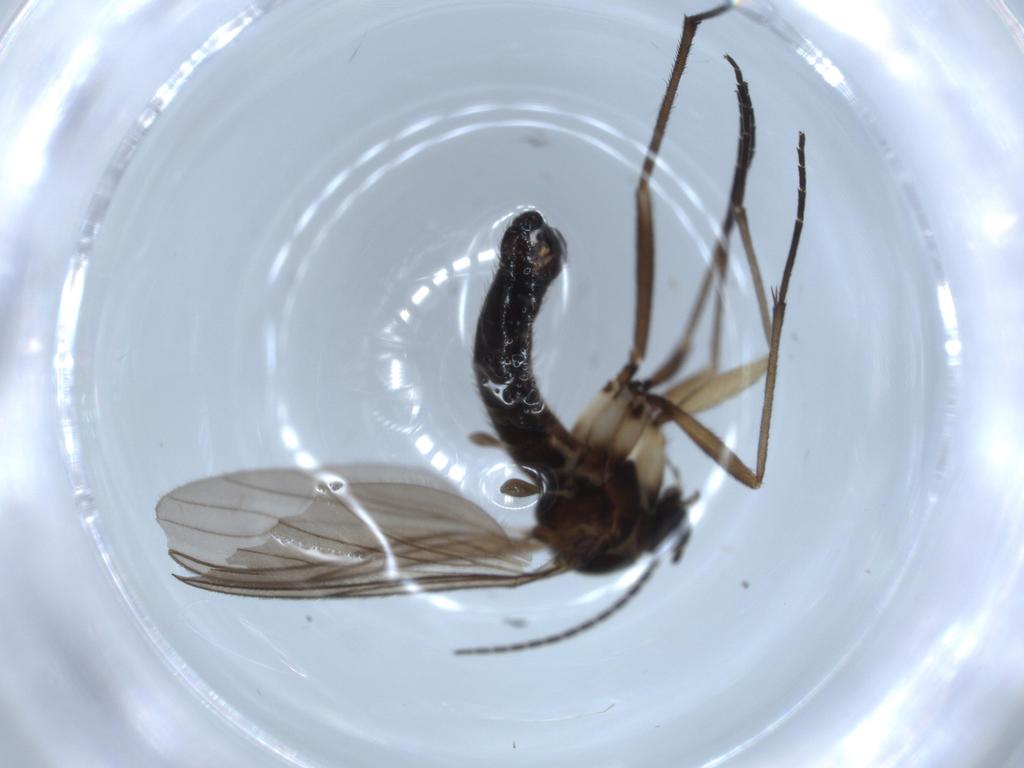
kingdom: Animalia
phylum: Arthropoda
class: Insecta
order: Diptera
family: Sciaridae
